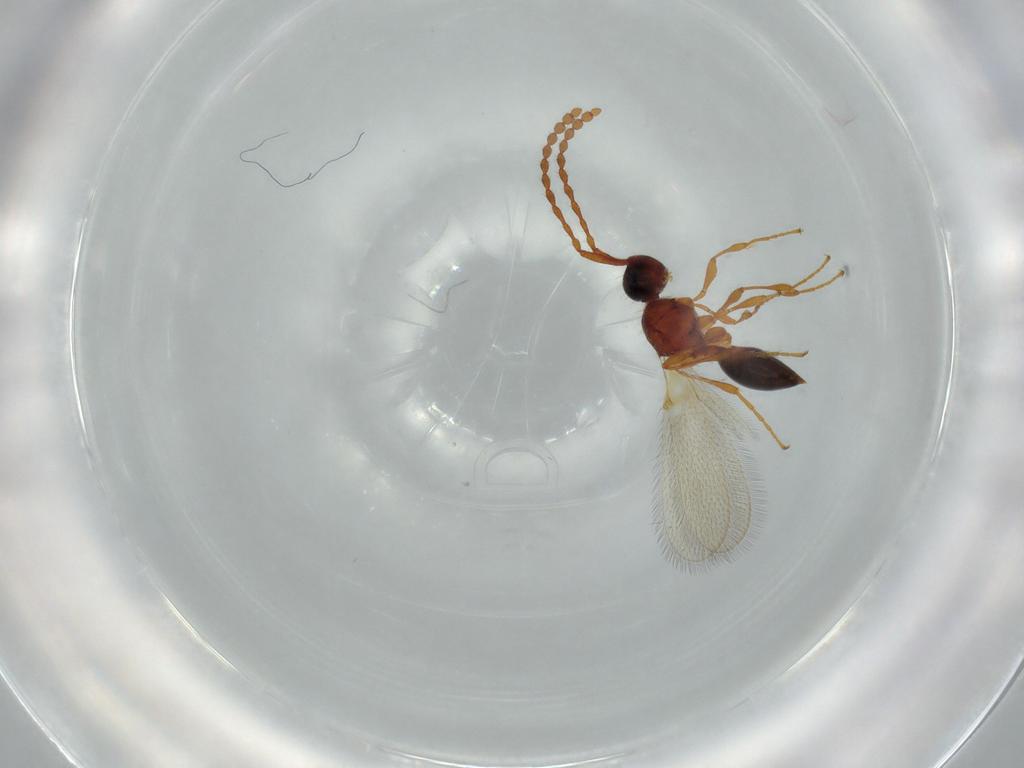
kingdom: Animalia
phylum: Arthropoda
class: Insecta
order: Hymenoptera
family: Diapriidae
